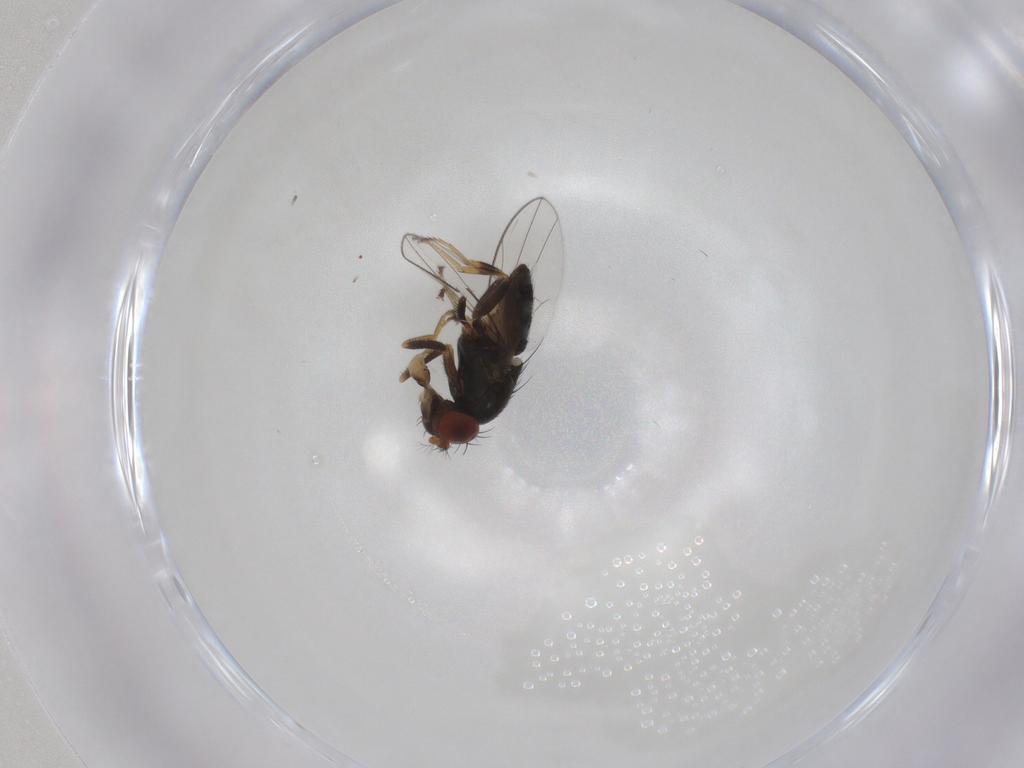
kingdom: Animalia
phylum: Arthropoda
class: Insecta
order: Diptera
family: Ephydridae
